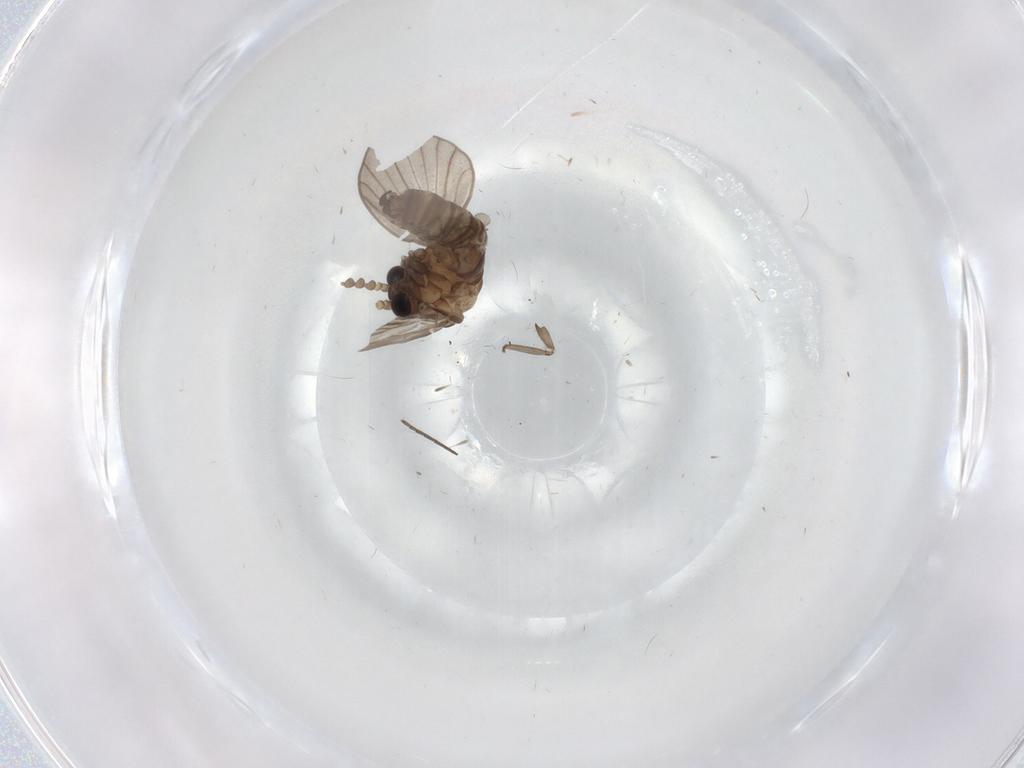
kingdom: Animalia
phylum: Arthropoda
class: Insecta
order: Diptera
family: Psychodidae
